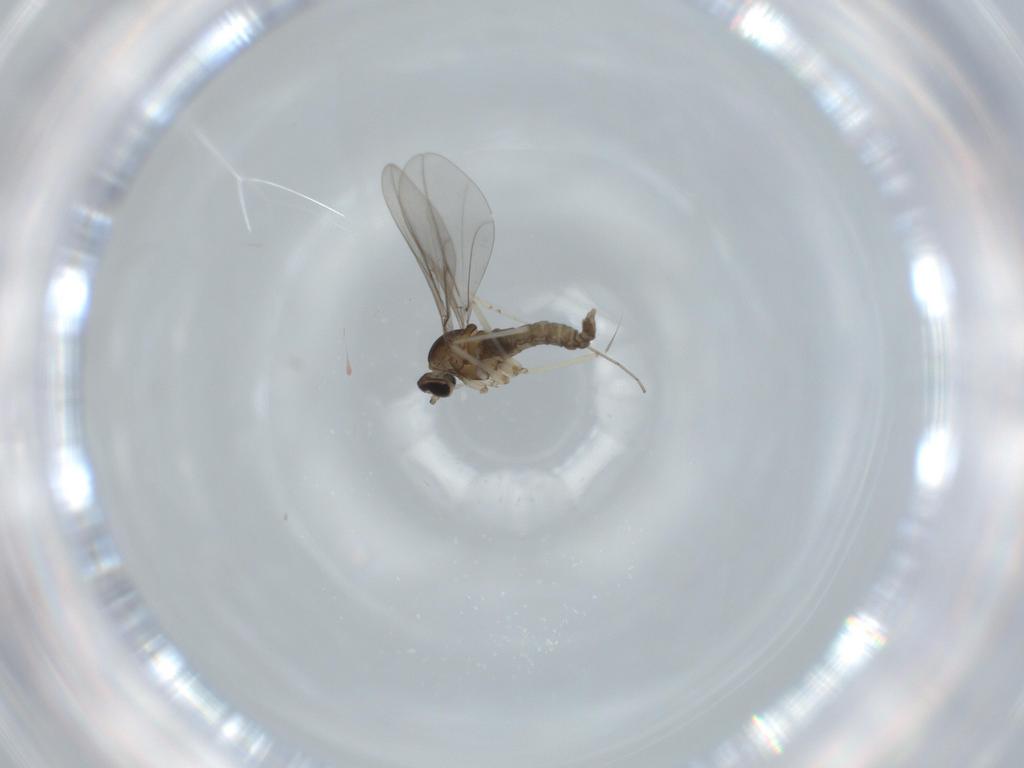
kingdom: Animalia
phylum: Arthropoda
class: Insecta
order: Diptera
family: Cecidomyiidae
